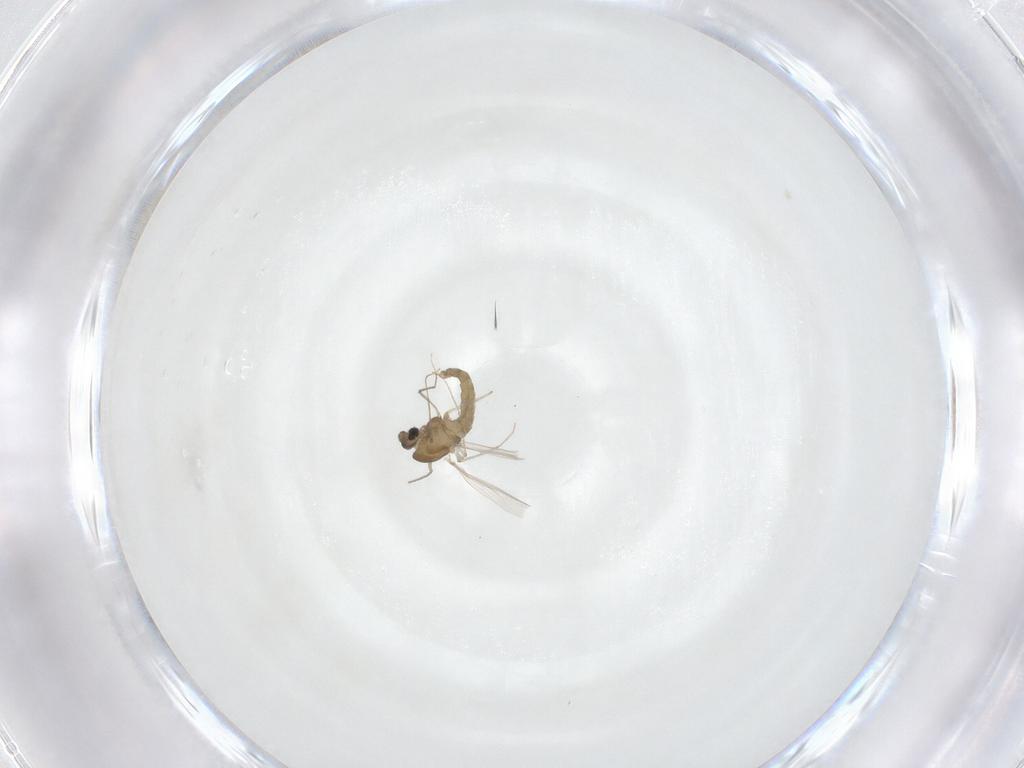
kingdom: Animalia
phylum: Arthropoda
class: Insecta
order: Diptera
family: Chironomidae
